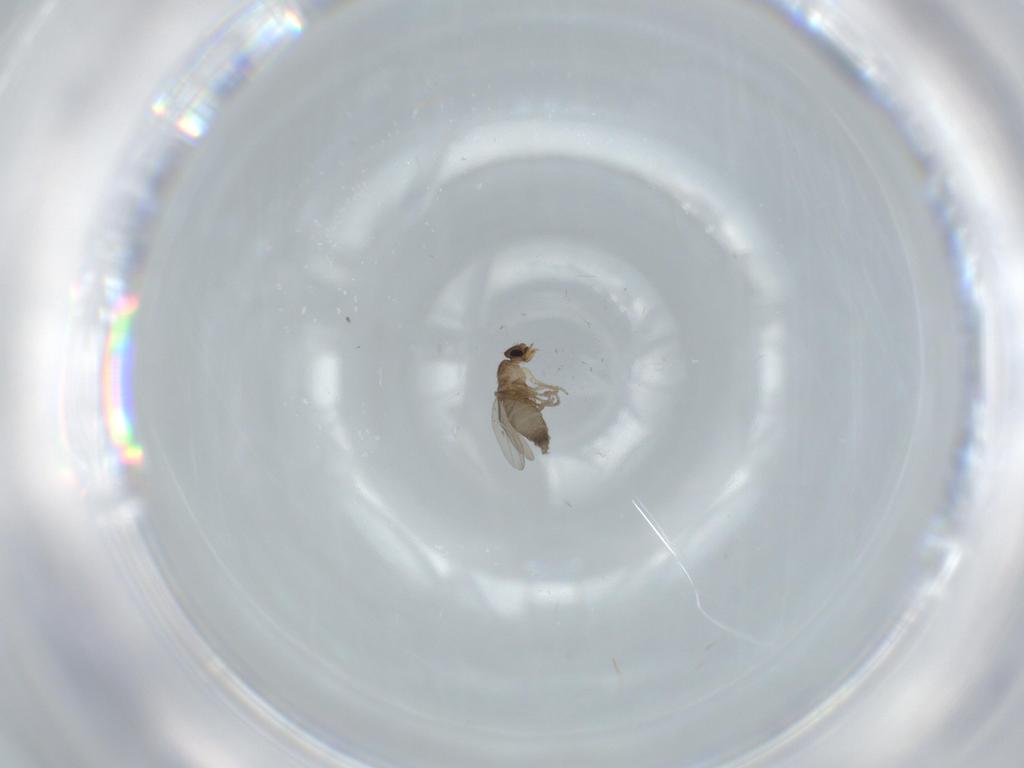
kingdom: Animalia
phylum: Arthropoda
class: Insecta
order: Diptera
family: Phoridae
